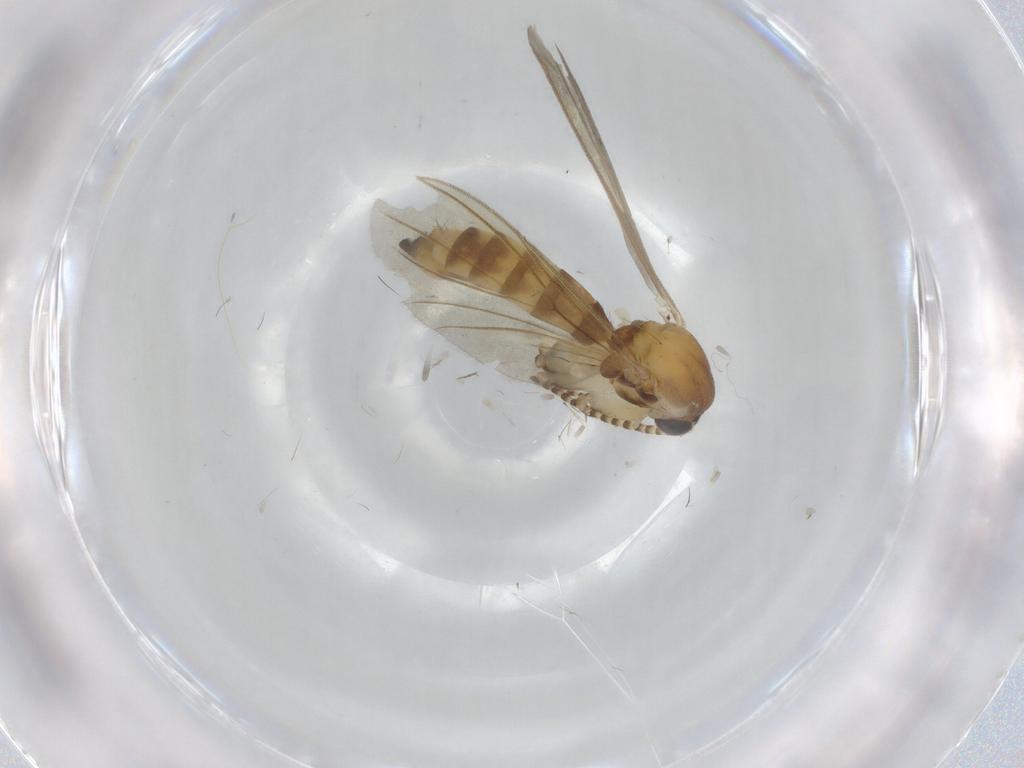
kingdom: Animalia
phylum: Arthropoda
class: Insecta
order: Diptera
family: Mycetophilidae
